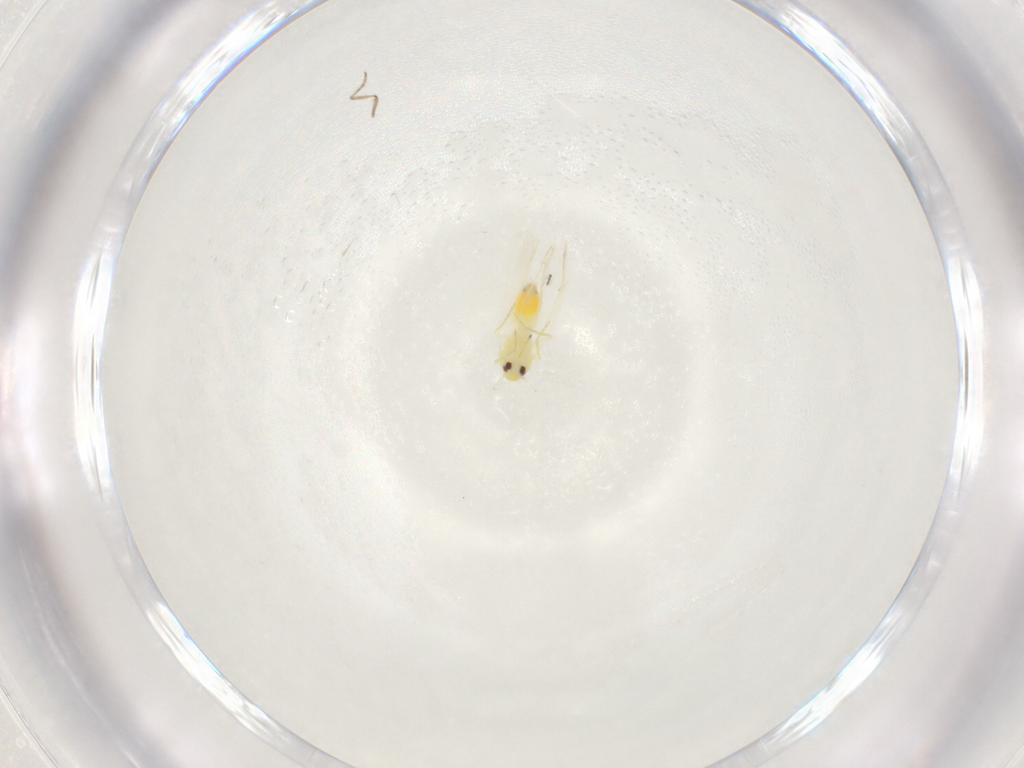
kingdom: Animalia
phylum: Arthropoda
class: Insecta
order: Hemiptera
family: Aleyrodidae
